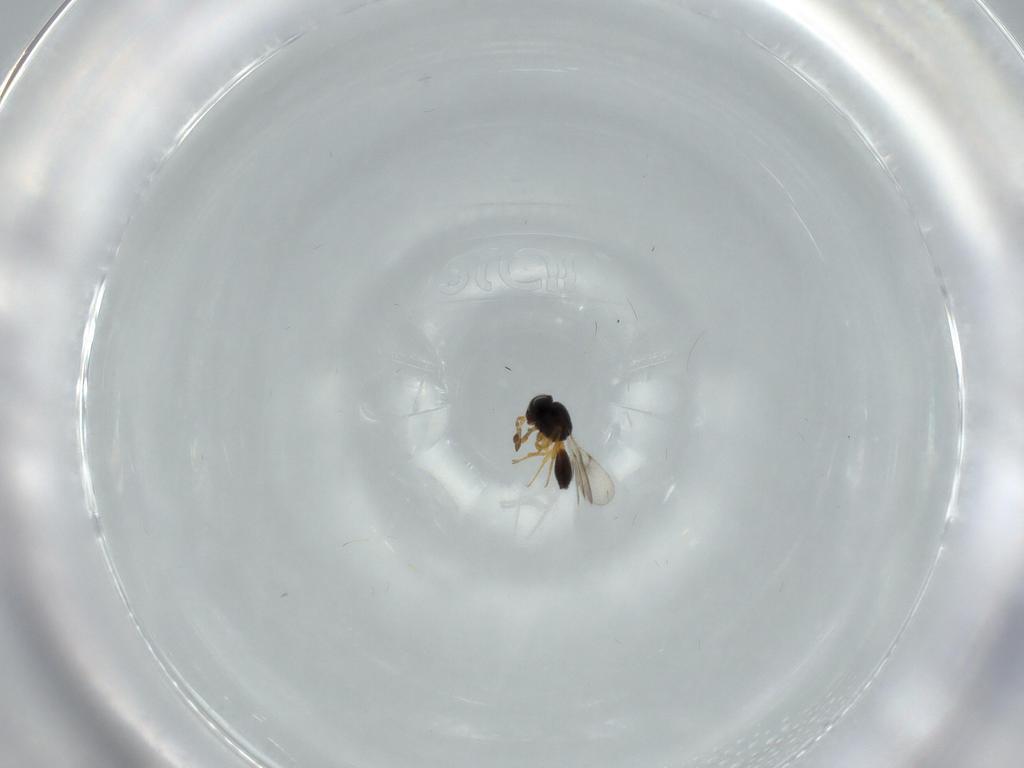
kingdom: Animalia
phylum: Arthropoda
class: Insecta
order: Hymenoptera
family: Scelionidae
